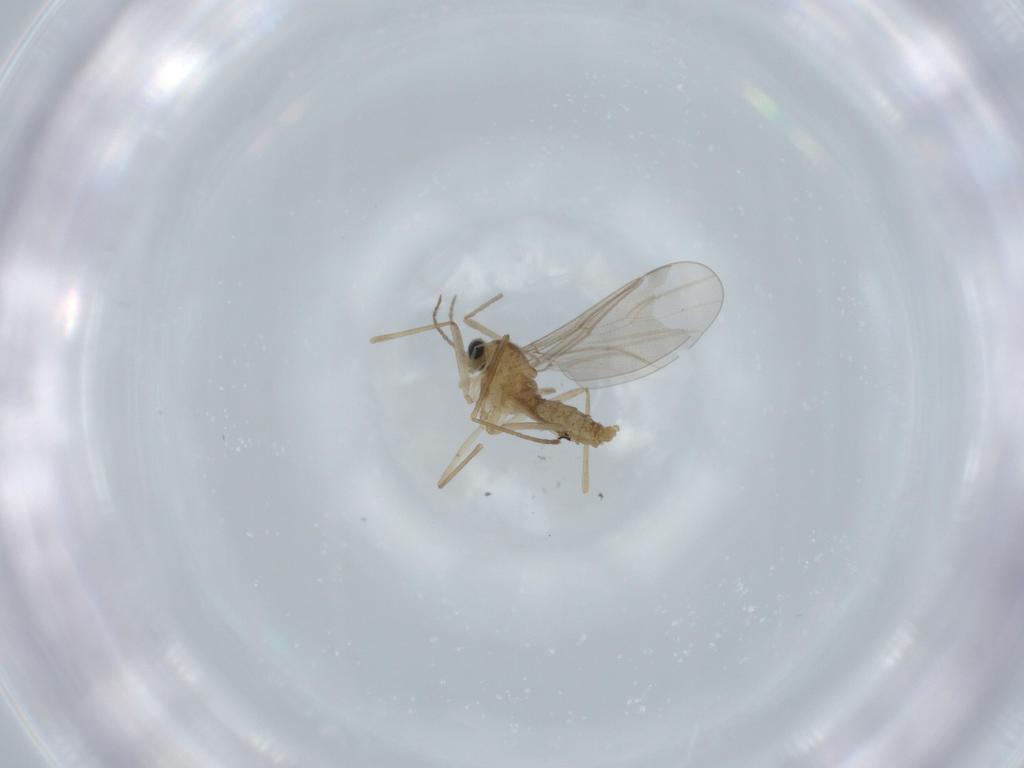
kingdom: Animalia
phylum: Arthropoda
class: Insecta
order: Diptera
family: Cecidomyiidae
